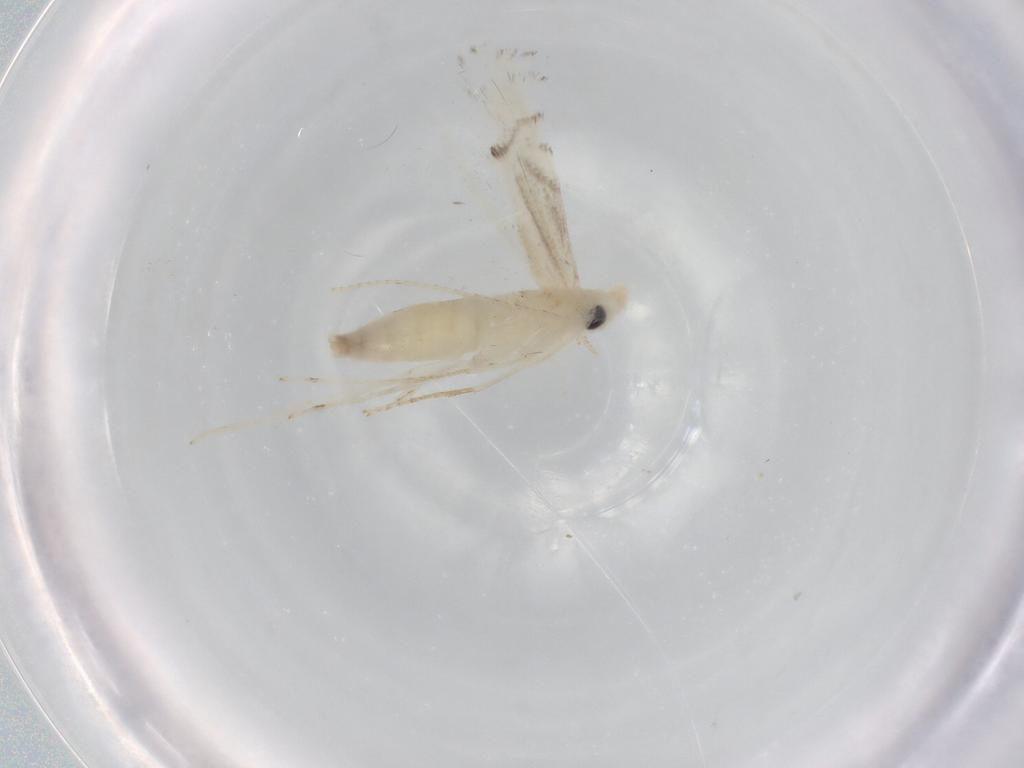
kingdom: Animalia
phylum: Arthropoda
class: Insecta
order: Lepidoptera
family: Gracillariidae
